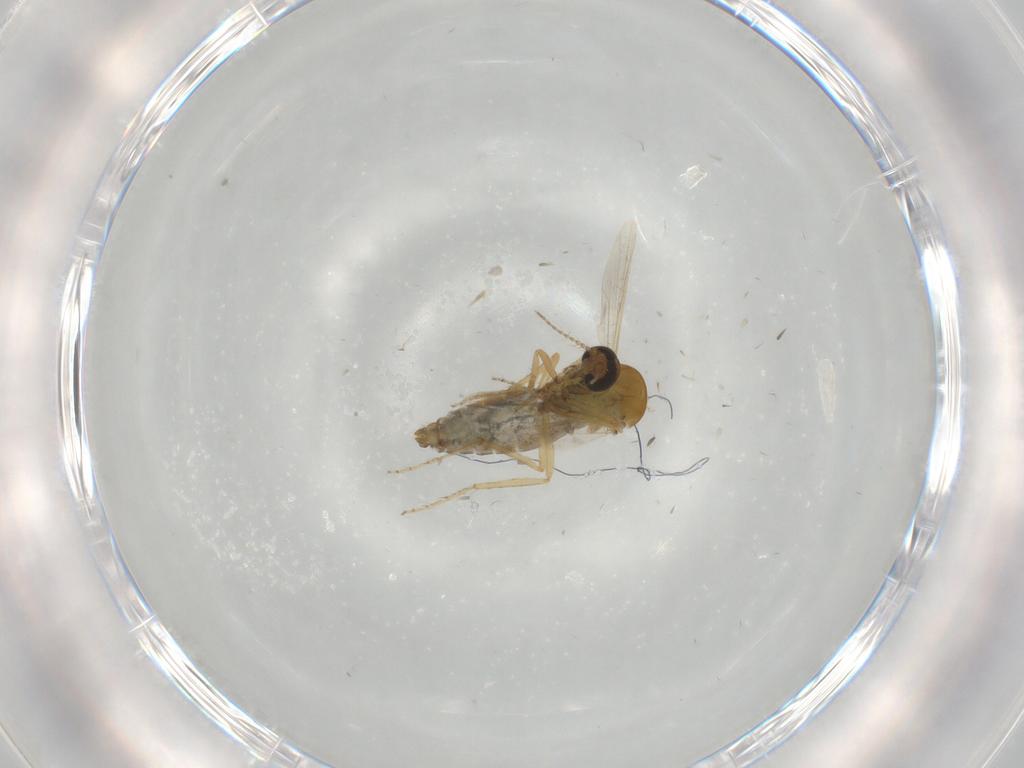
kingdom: Animalia
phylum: Arthropoda
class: Insecta
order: Diptera
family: Ceratopogonidae
